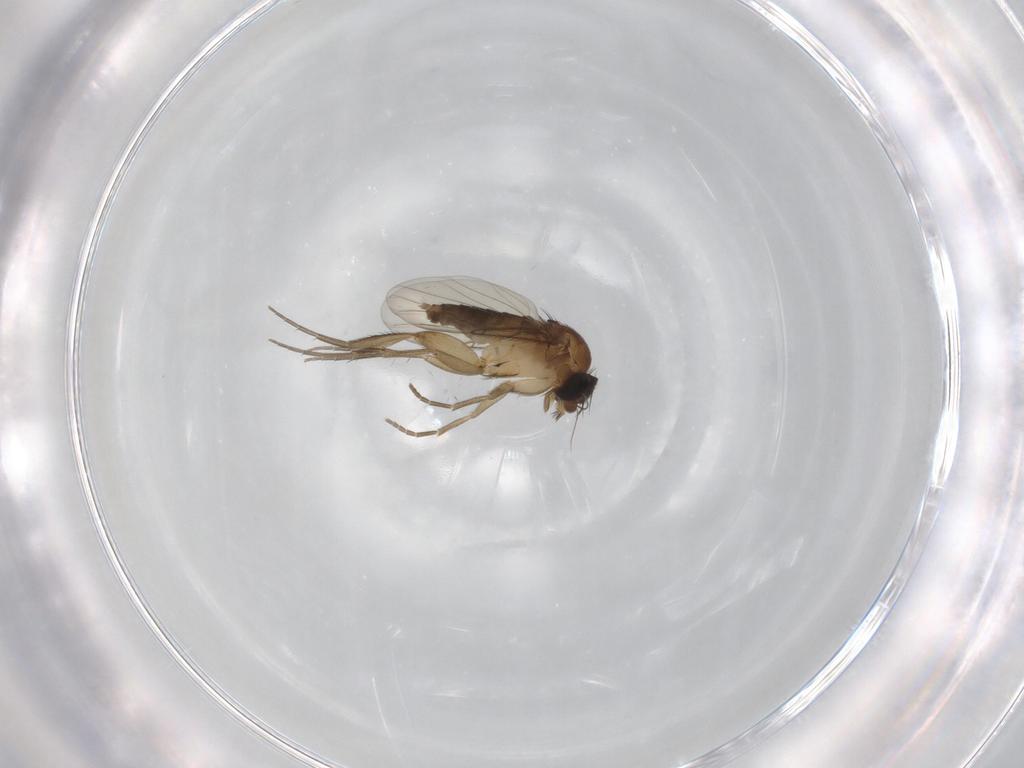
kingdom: Animalia
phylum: Arthropoda
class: Insecta
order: Diptera
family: Phoridae
